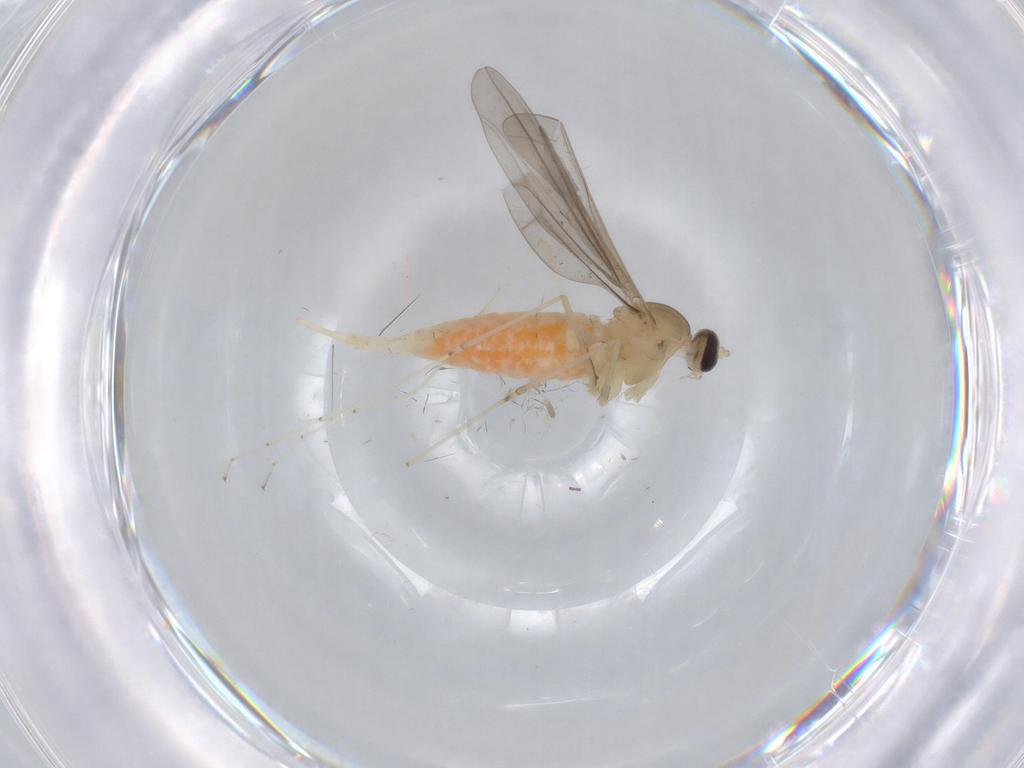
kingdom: Animalia
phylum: Arthropoda
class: Insecta
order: Diptera
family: Cecidomyiidae
